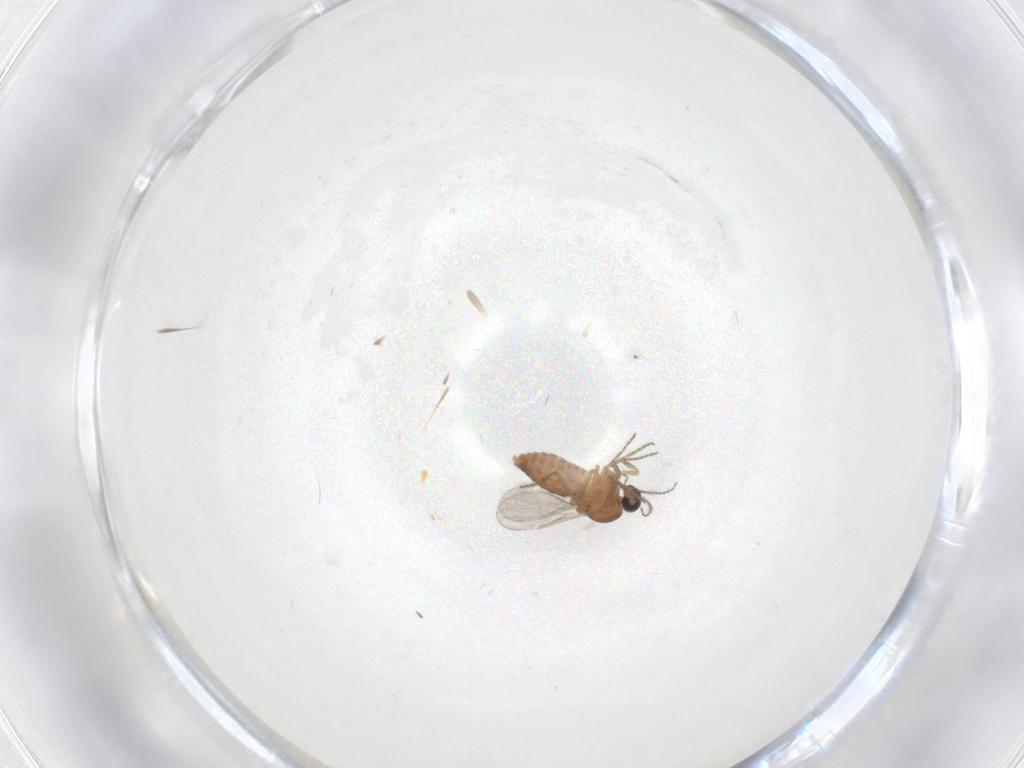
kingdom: Animalia
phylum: Arthropoda
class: Insecta
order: Diptera
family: Ceratopogonidae
